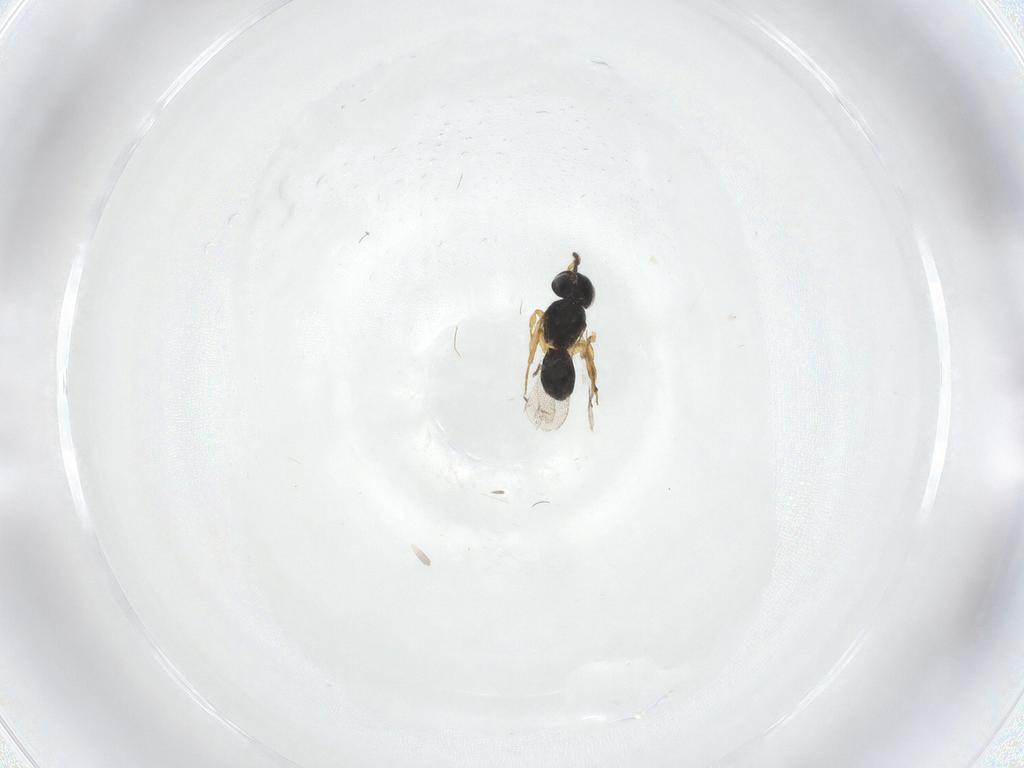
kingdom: Animalia
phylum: Arthropoda
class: Insecta
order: Hymenoptera
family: Scelionidae
